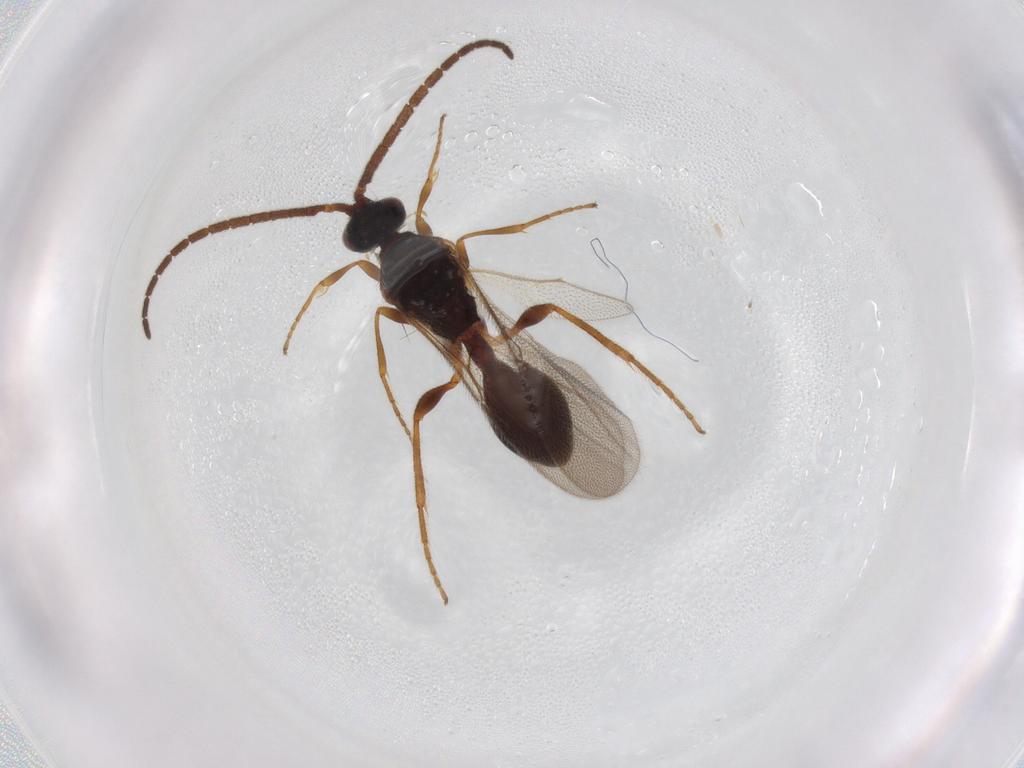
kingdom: Animalia
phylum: Arthropoda
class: Insecta
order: Hymenoptera
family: Diapriidae
